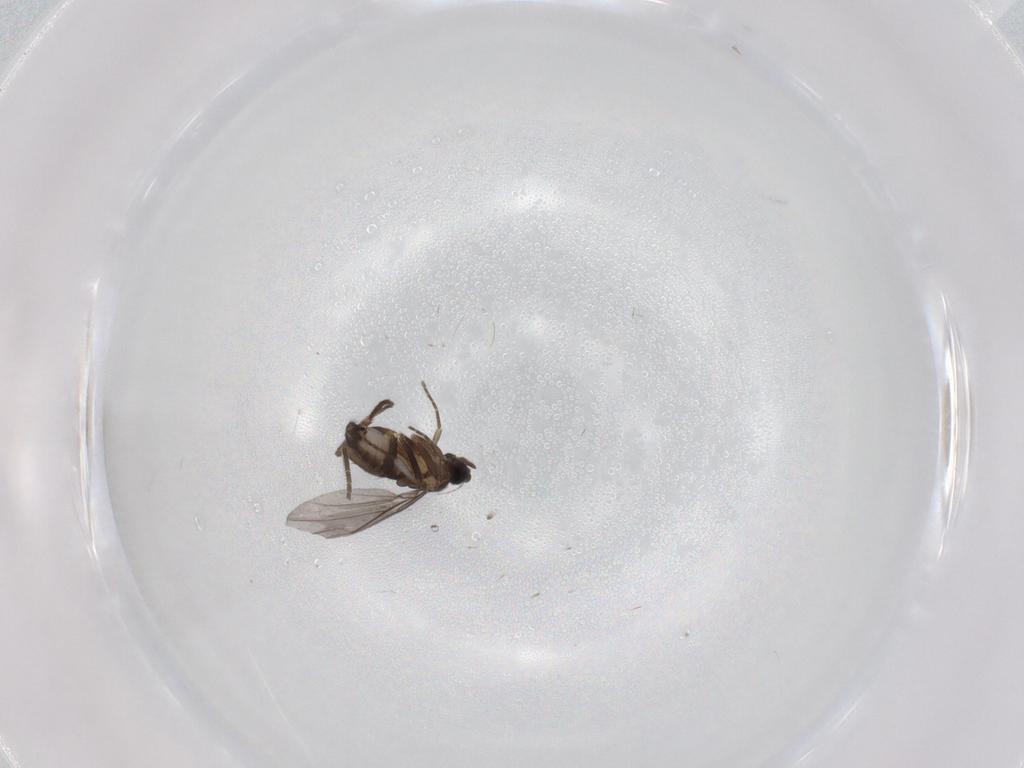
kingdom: Animalia
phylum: Arthropoda
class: Insecta
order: Diptera
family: Phoridae
